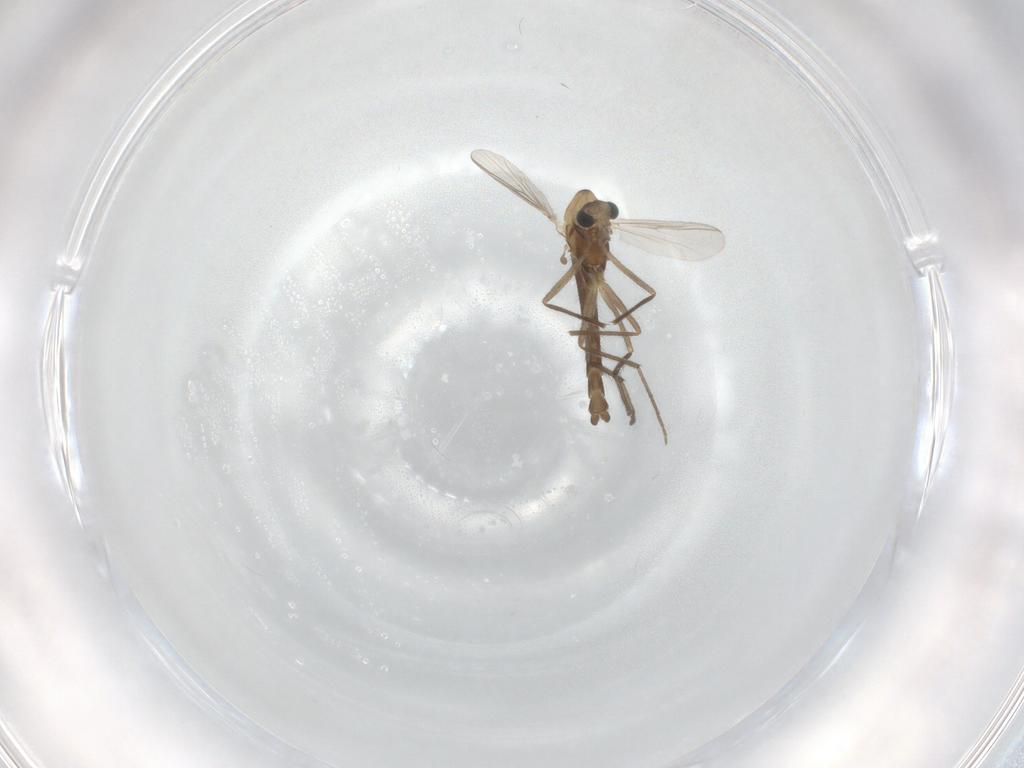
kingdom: Animalia
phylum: Arthropoda
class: Insecta
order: Diptera
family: Chironomidae
